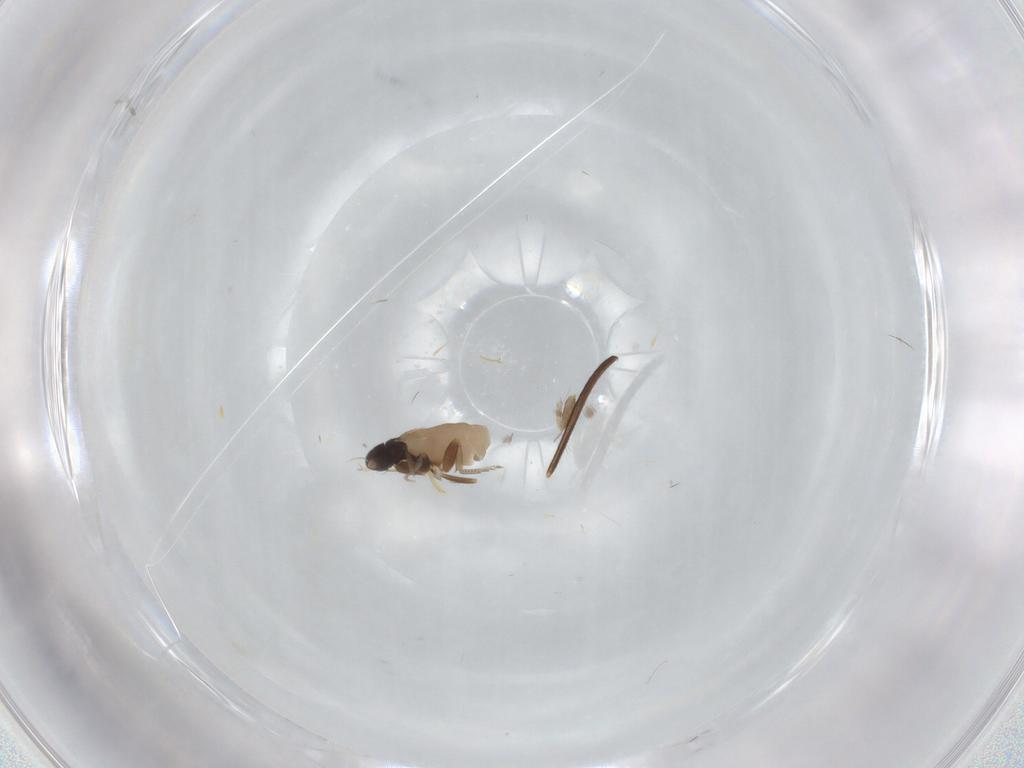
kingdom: Animalia
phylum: Arthropoda
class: Insecta
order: Diptera
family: Phoridae
